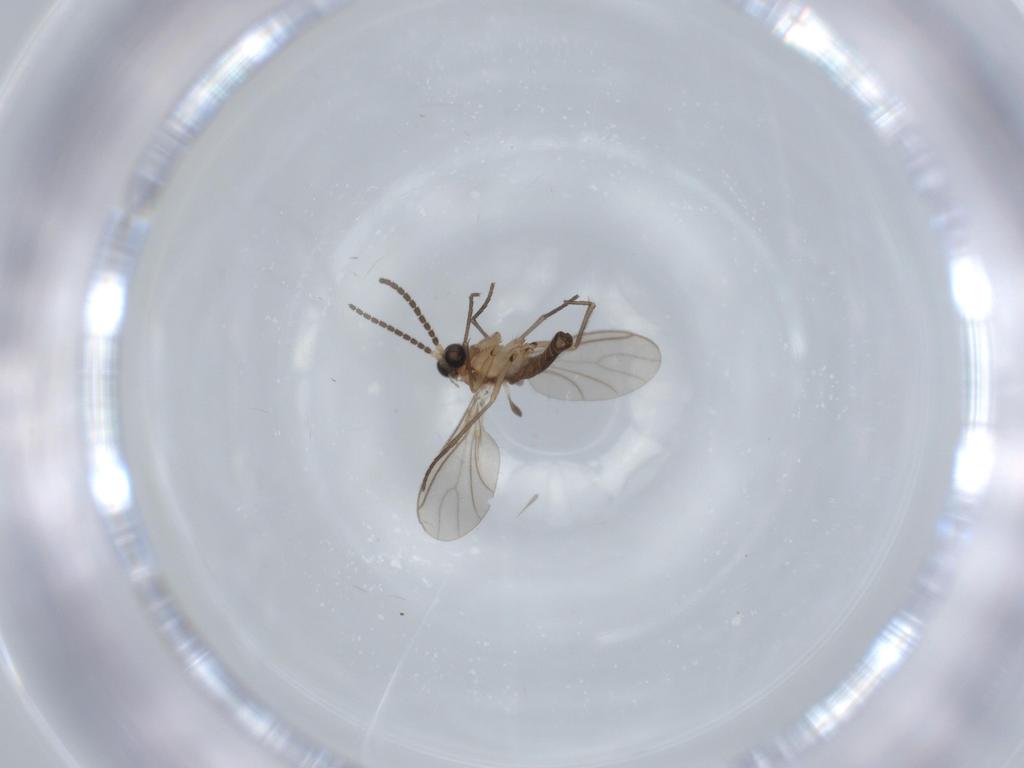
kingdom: Animalia
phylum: Arthropoda
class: Insecta
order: Diptera
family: Sciaridae
